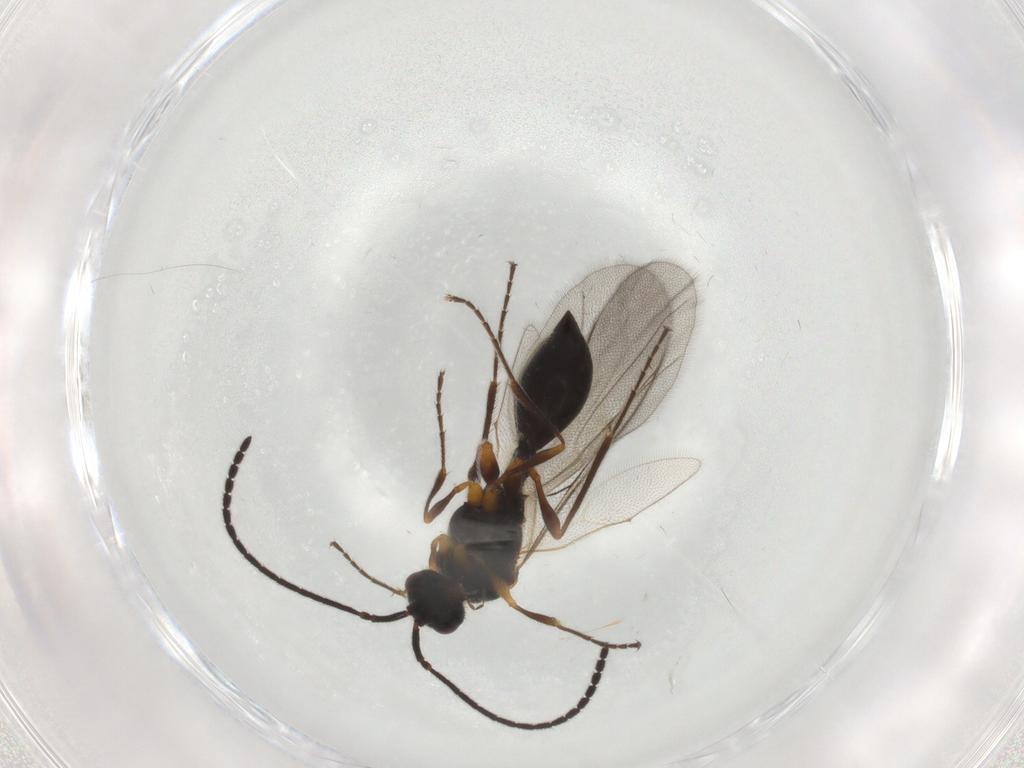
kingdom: Animalia
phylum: Arthropoda
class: Insecta
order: Hymenoptera
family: Diapriidae
